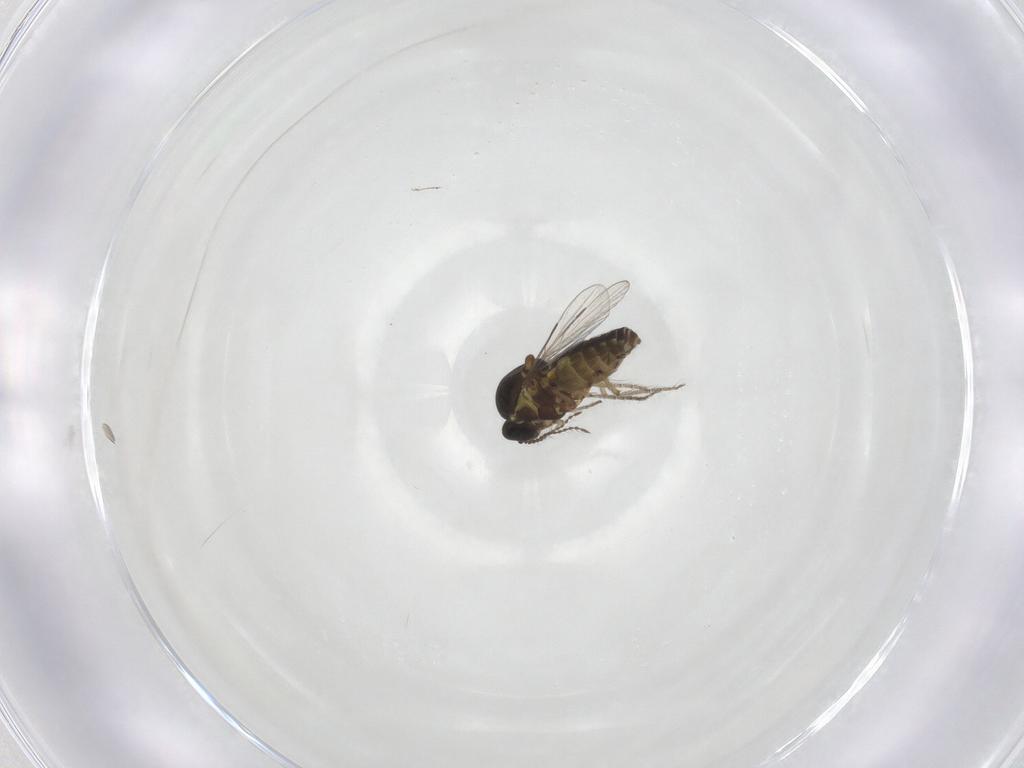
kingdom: Animalia
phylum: Arthropoda
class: Insecta
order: Diptera
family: Ceratopogonidae
